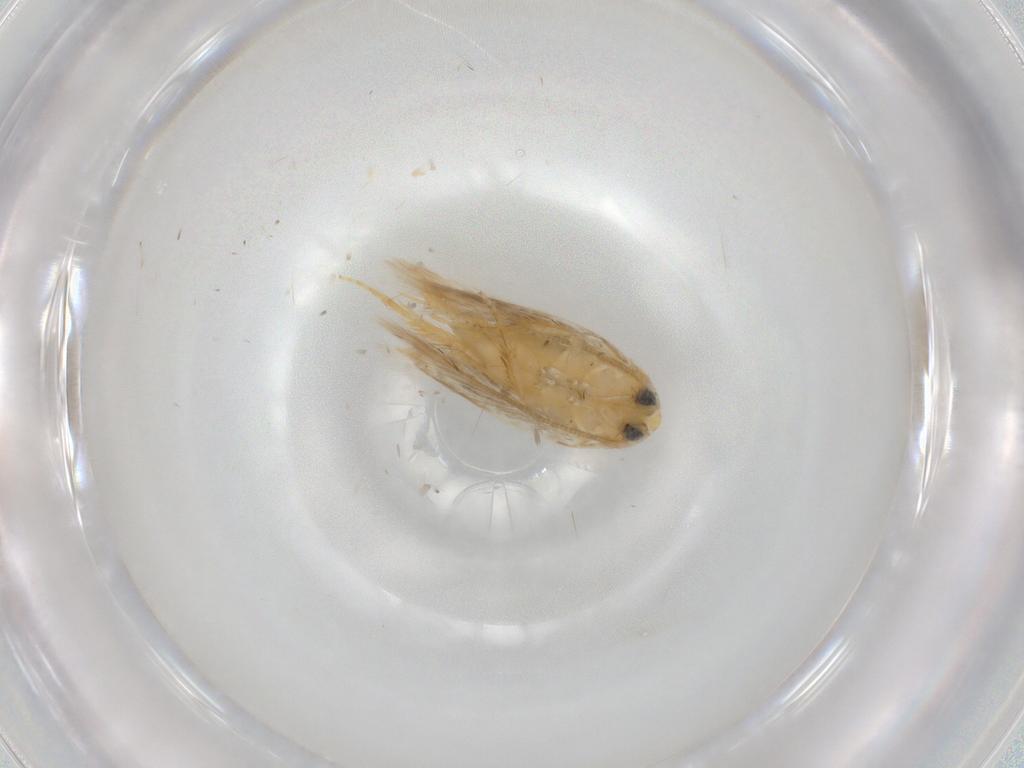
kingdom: Animalia
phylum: Arthropoda
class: Insecta
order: Lepidoptera
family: Opostegidae
